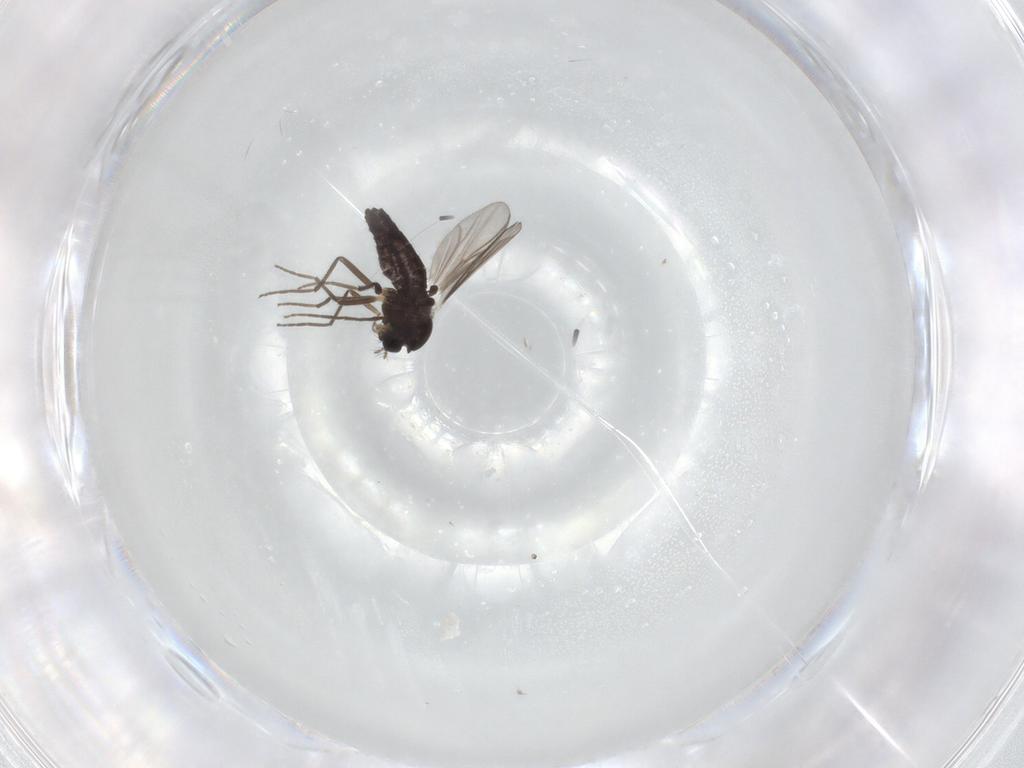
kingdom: Animalia
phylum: Arthropoda
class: Insecta
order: Diptera
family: Chironomidae
